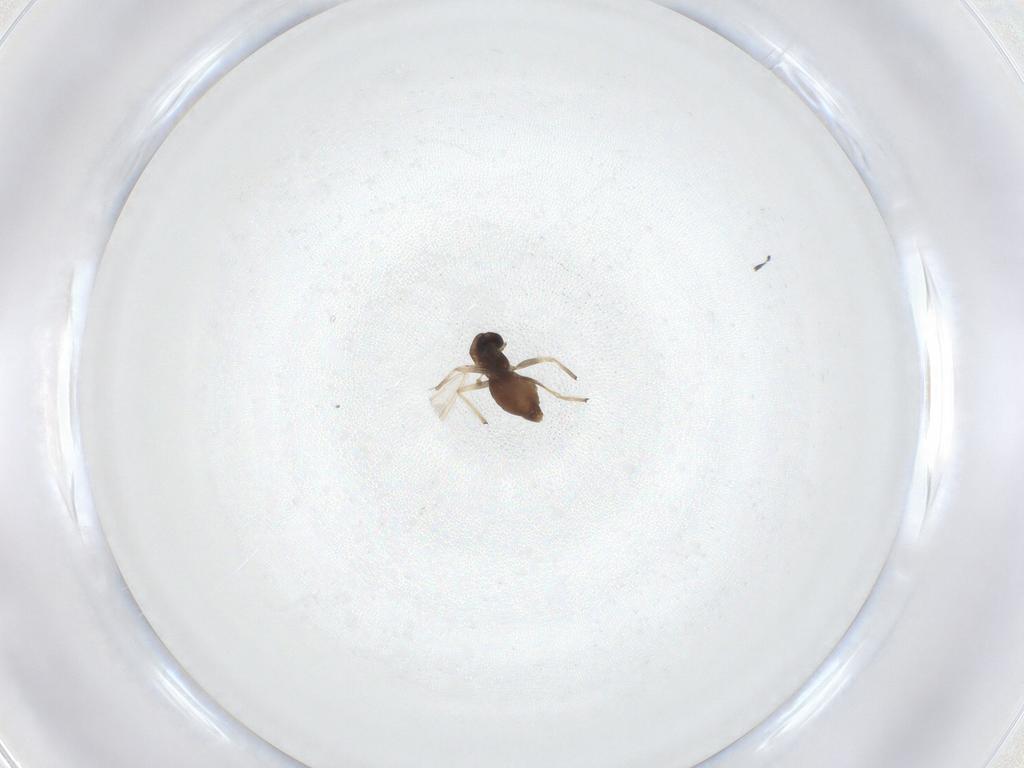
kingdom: Animalia
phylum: Arthropoda
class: Insecta
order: Diptera
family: Chironomidae
